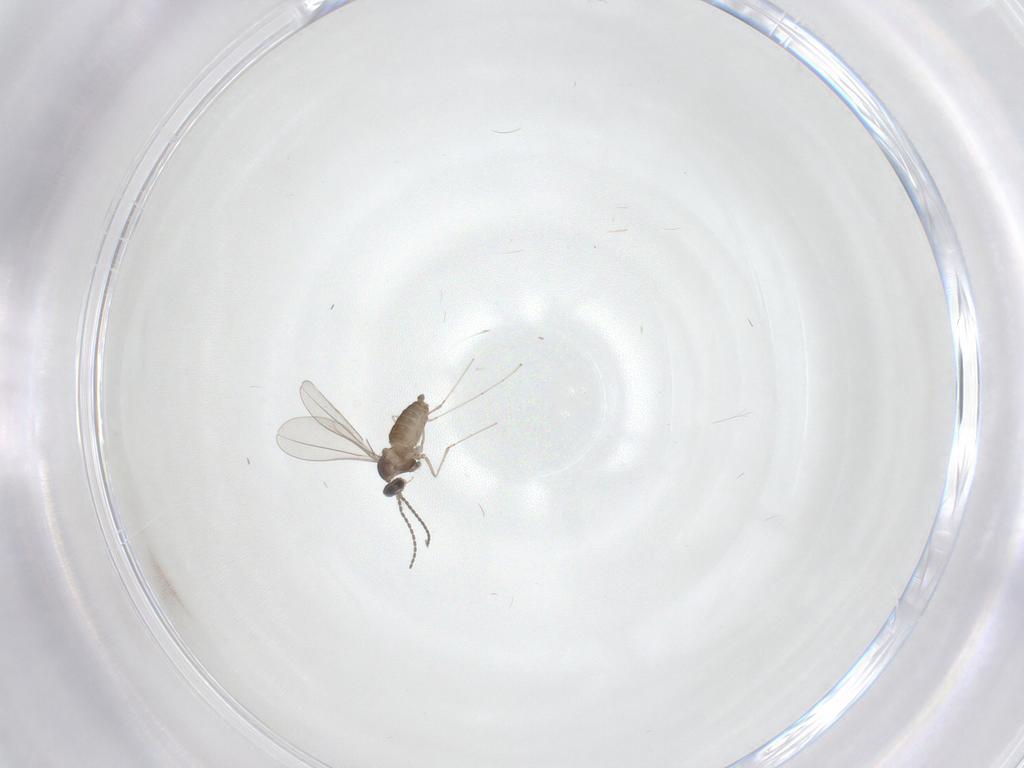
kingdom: Animalia
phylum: Arthropoda
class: Insecta
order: Diptera
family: Cecidomyiidae
